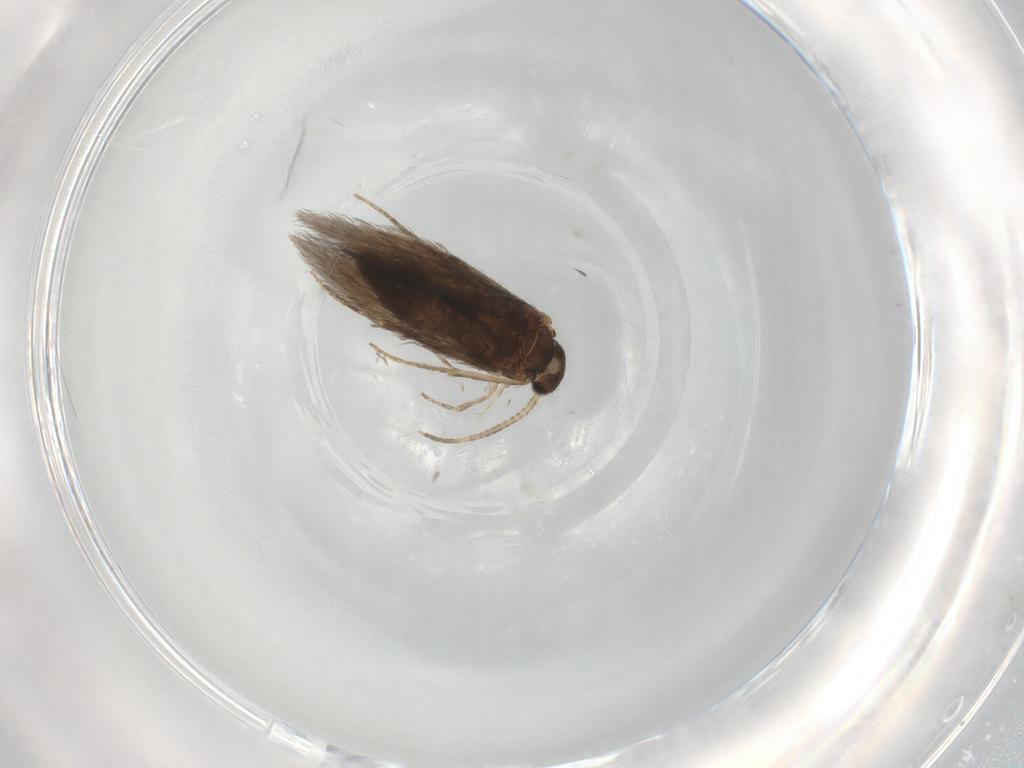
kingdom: Animalia
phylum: Arthropoda
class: Insecta
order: Trichoptera
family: Hydroptilidae
